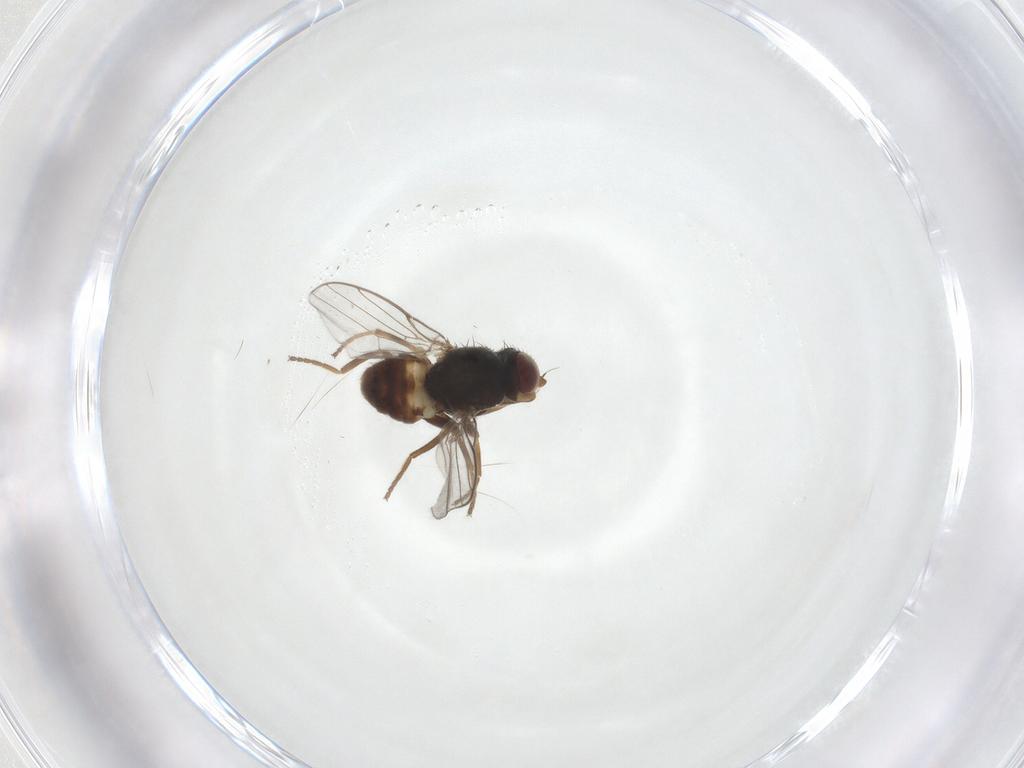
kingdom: Animalia
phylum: Arthropoda
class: Insecta
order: Diptera
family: Chloropidae
